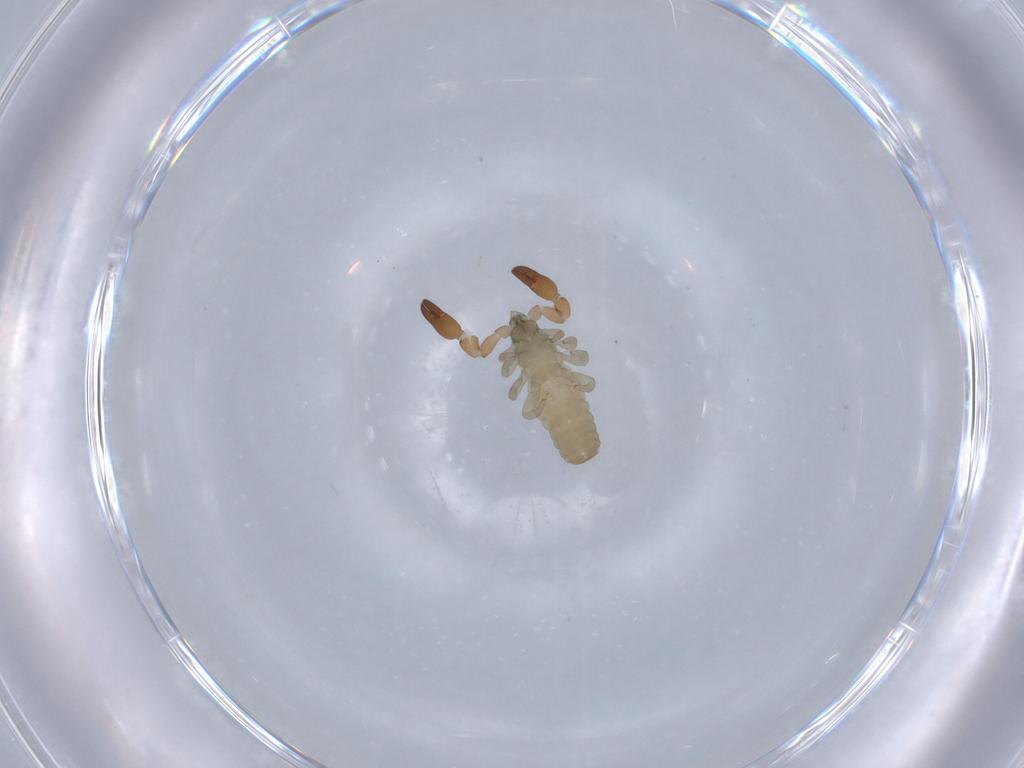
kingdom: Animalia
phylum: Arthropoda
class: Arachnida
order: Pseudoscorpiones
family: Garypinidae
